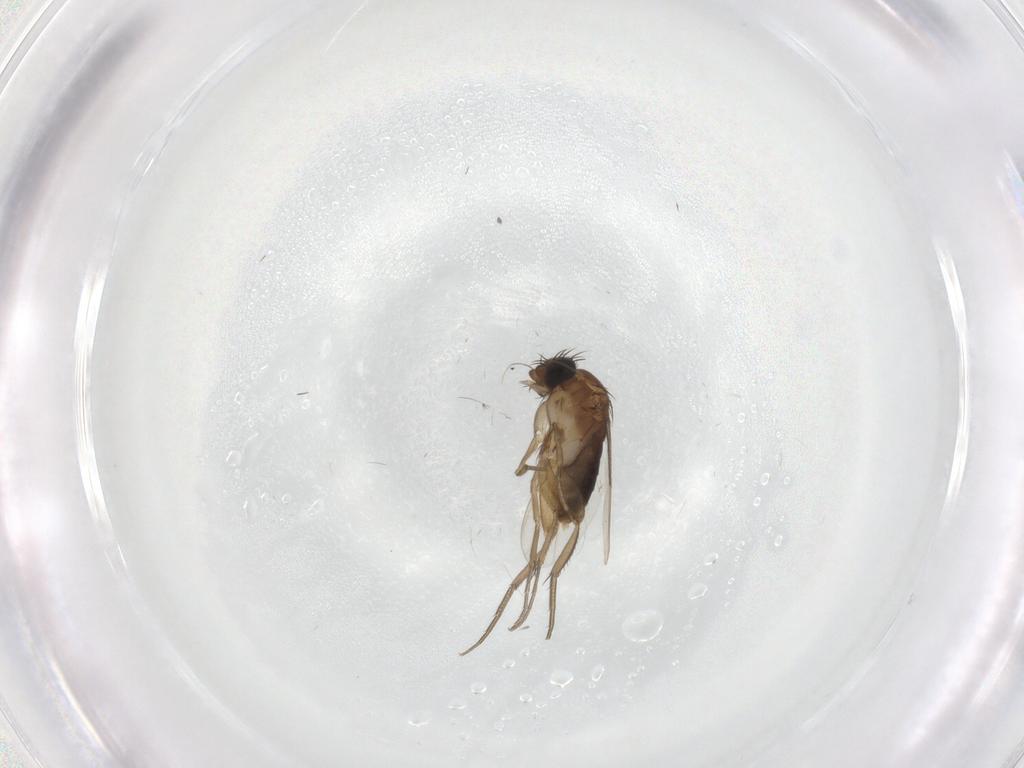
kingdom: Animalia
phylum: Arthropoda
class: Insecta
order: Diptera
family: Phoridae
